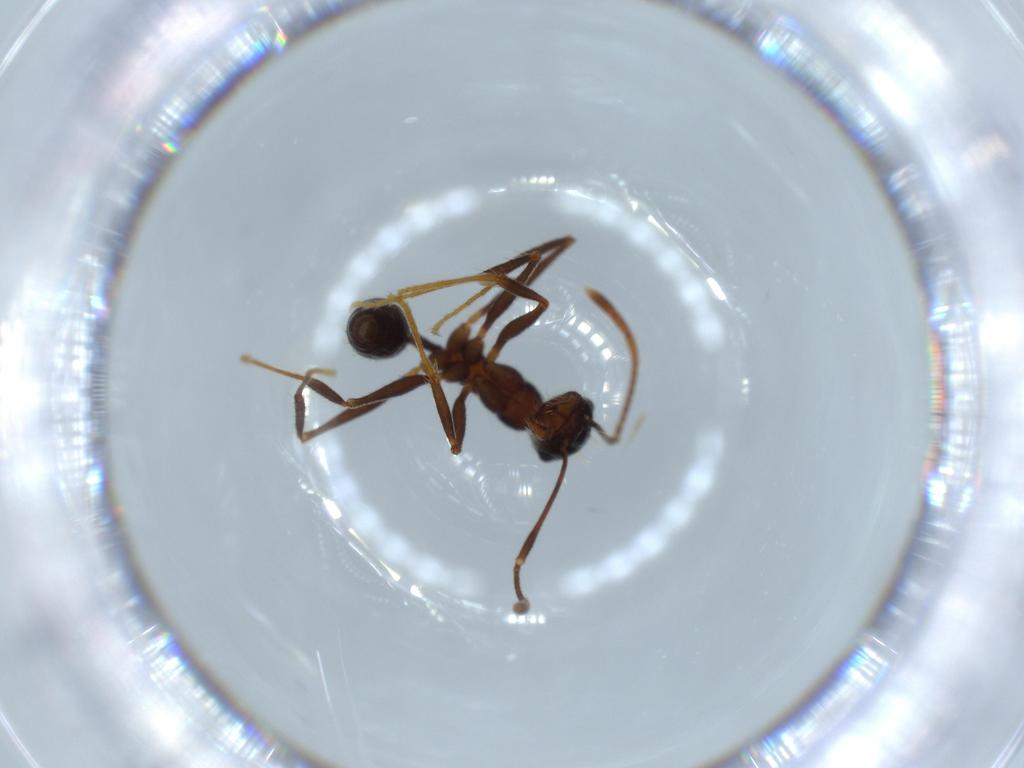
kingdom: Animalia
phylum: Arthropoda
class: Insecta
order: Hymenoptera
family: Formicidae
